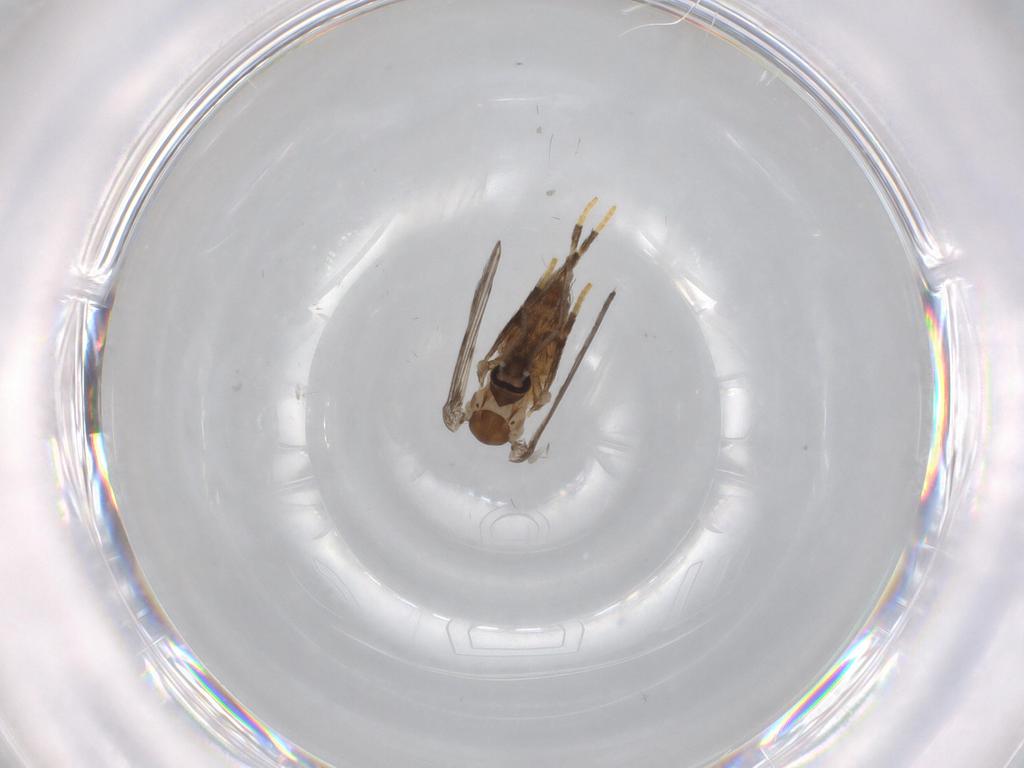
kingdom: Animalia
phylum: Arthropoda
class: Insecta
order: Diptera
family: Psychodidae
